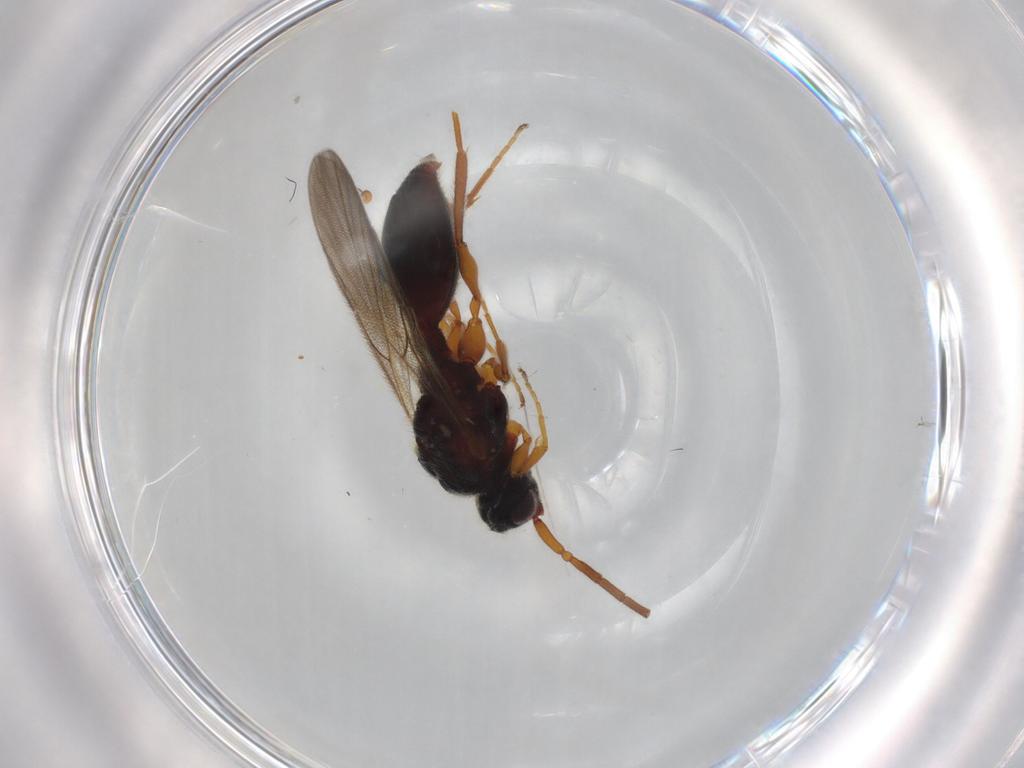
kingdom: Animalia
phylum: Arthropoda
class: Insecta
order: Hymenoptera
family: Diapriidae
